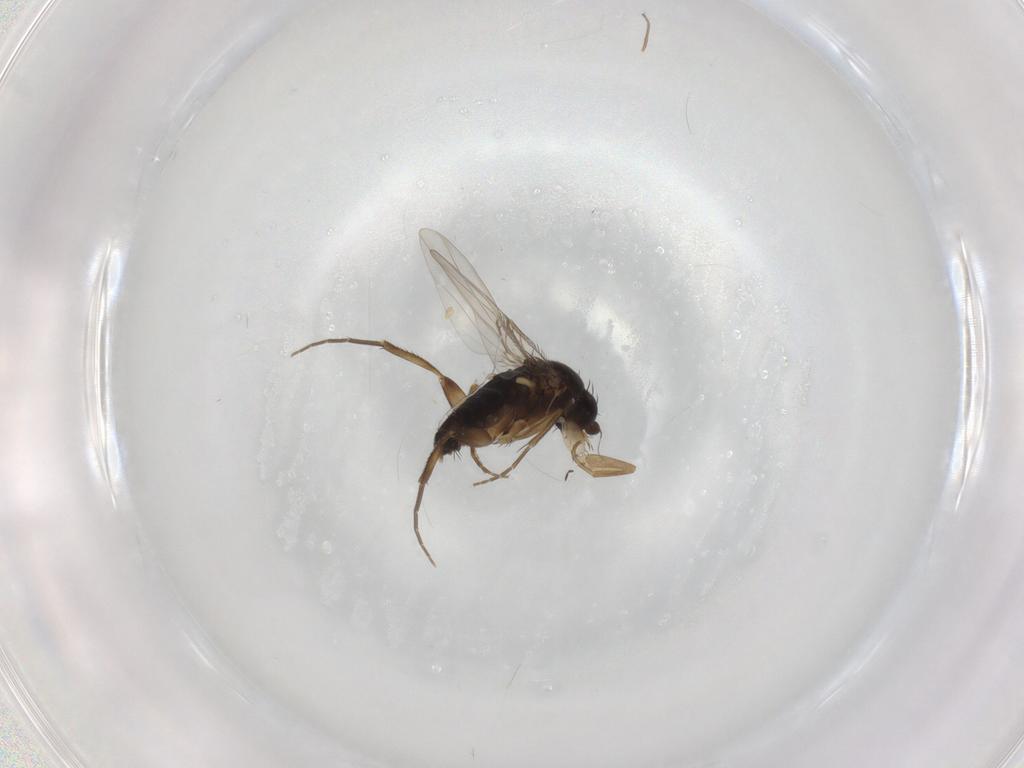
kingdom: Animalia
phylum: Arthropoda
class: Insecta
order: Diptera
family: Phoridae
